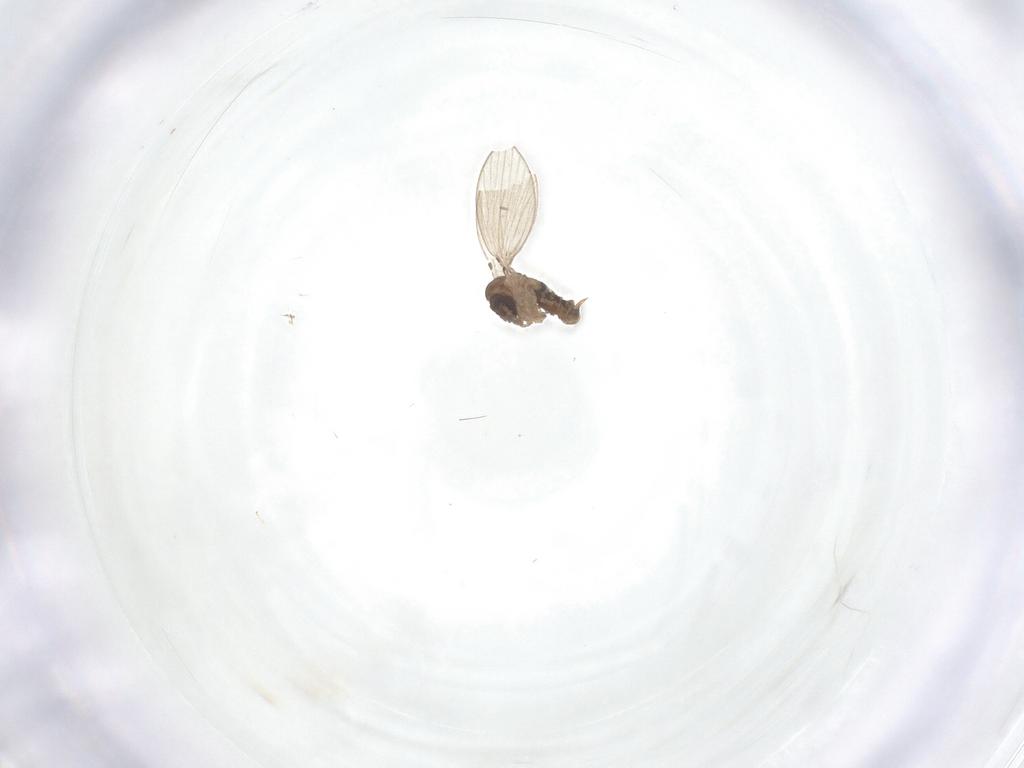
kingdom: Animalia
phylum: Arthropoda
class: Insecta
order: Diptera
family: Psychodidae
